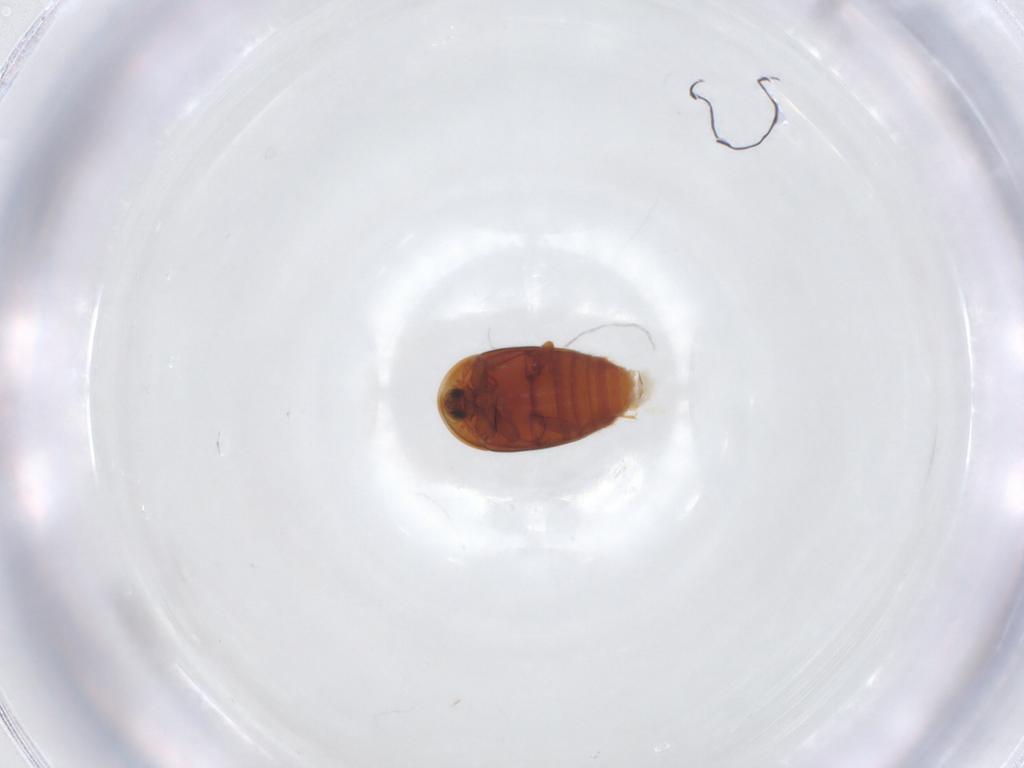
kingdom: Animalia
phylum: Arthropoda
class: Insecta
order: Coleoptera
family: Corylophidae
